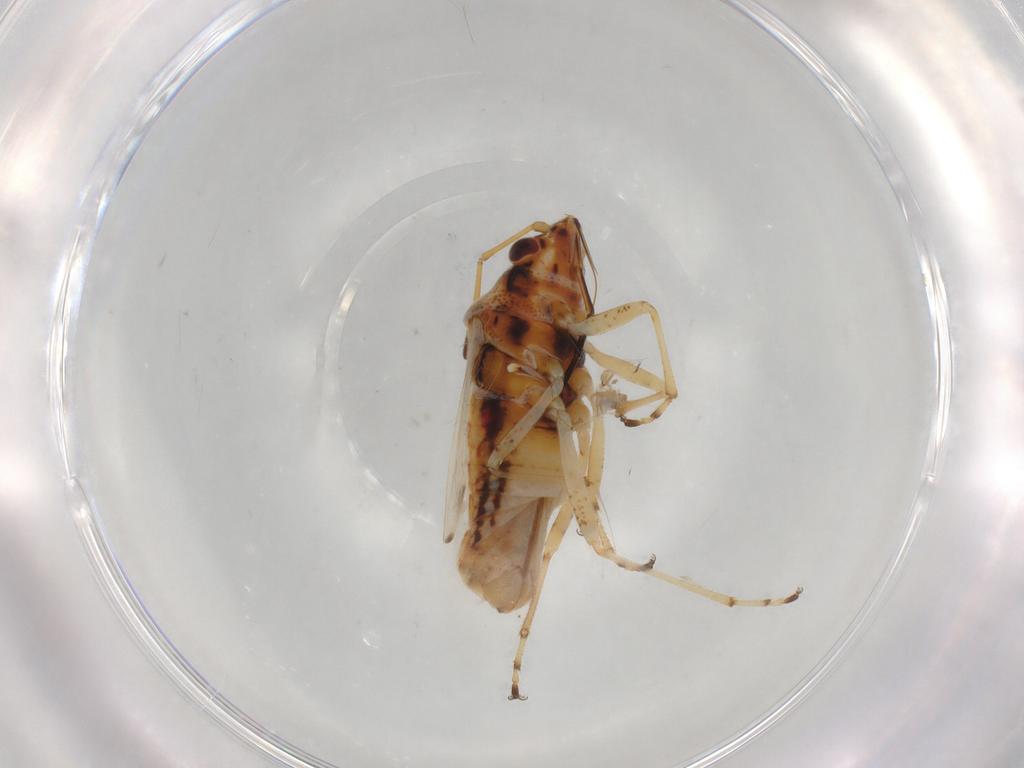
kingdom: Animalia
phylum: Arthropoda
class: Insecta
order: Hemiptera
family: Lygaeidae
